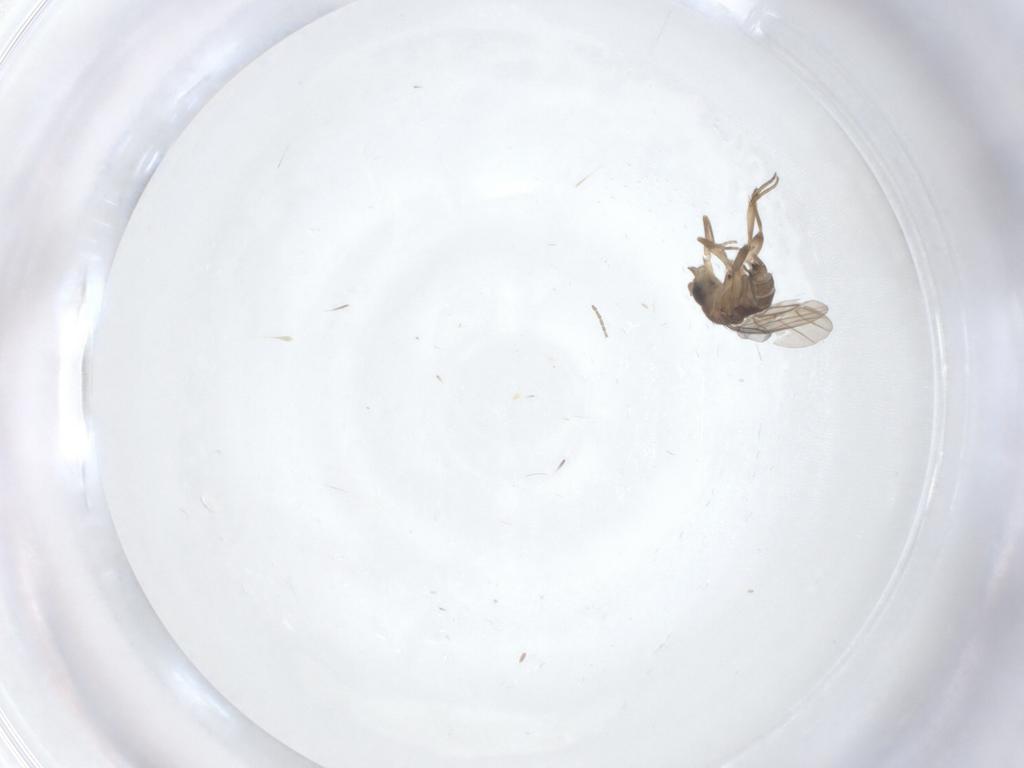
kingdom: Animalia
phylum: Arthropoda
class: Insecta
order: Diptera
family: Phoridae
